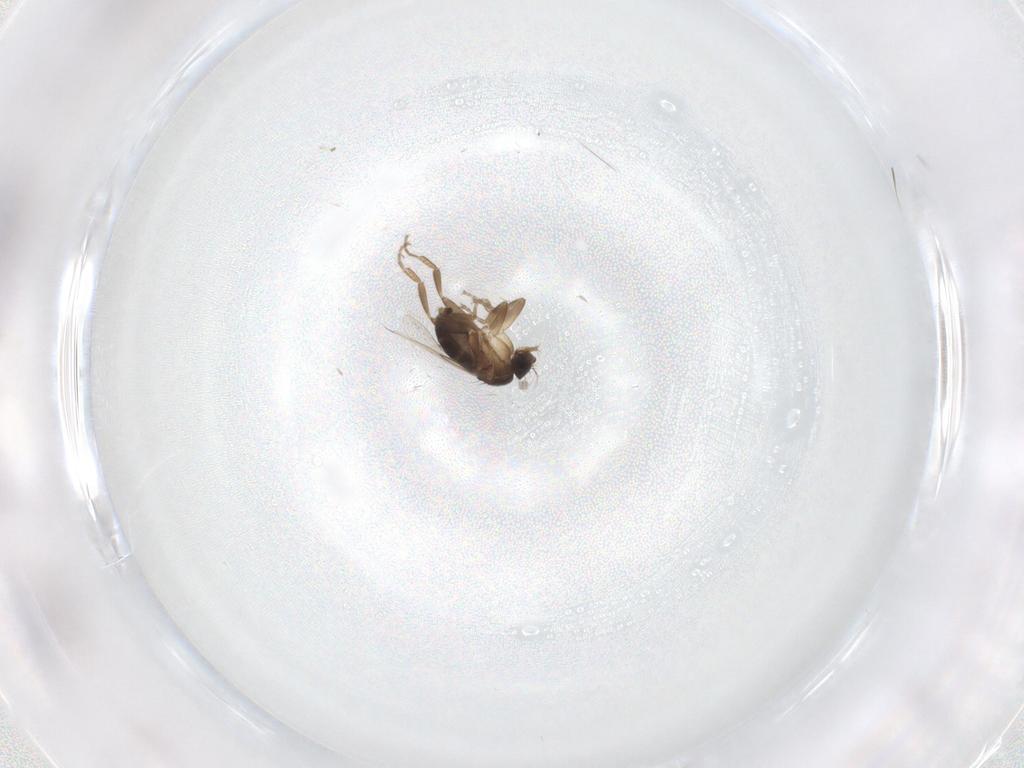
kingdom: Animalia
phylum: Arthropoda
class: Insecta
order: Diptera
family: Phoridae
